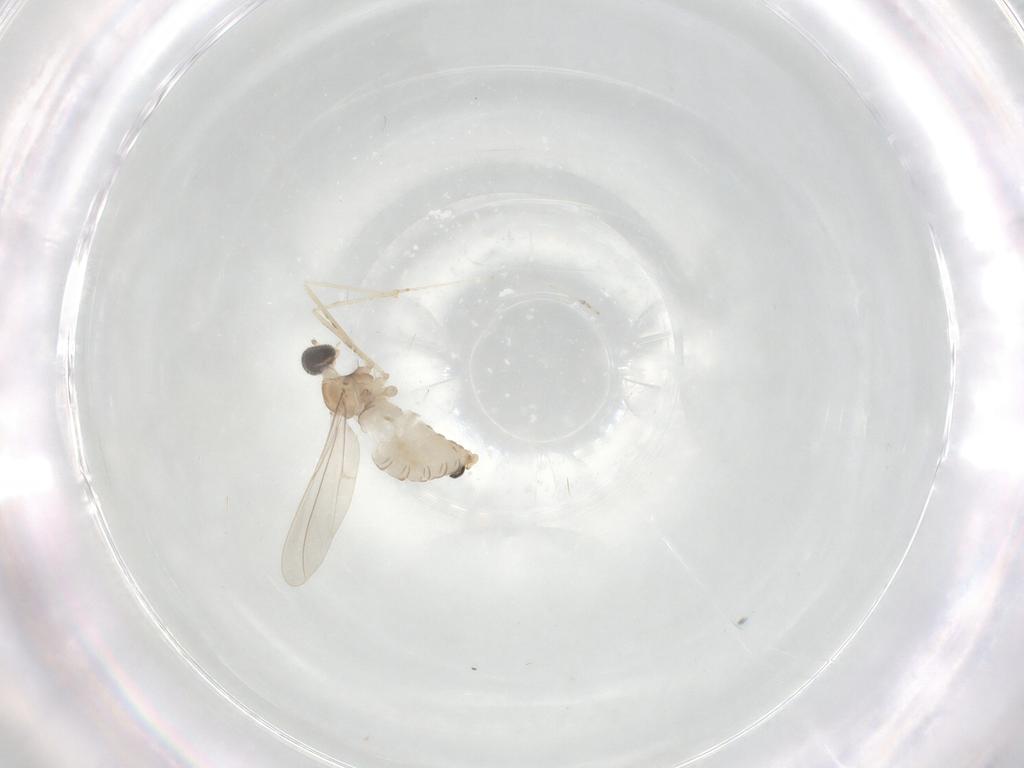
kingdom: Animalia
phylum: Arthropoda
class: Insecta
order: Diptera
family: Cecidomyiidae
